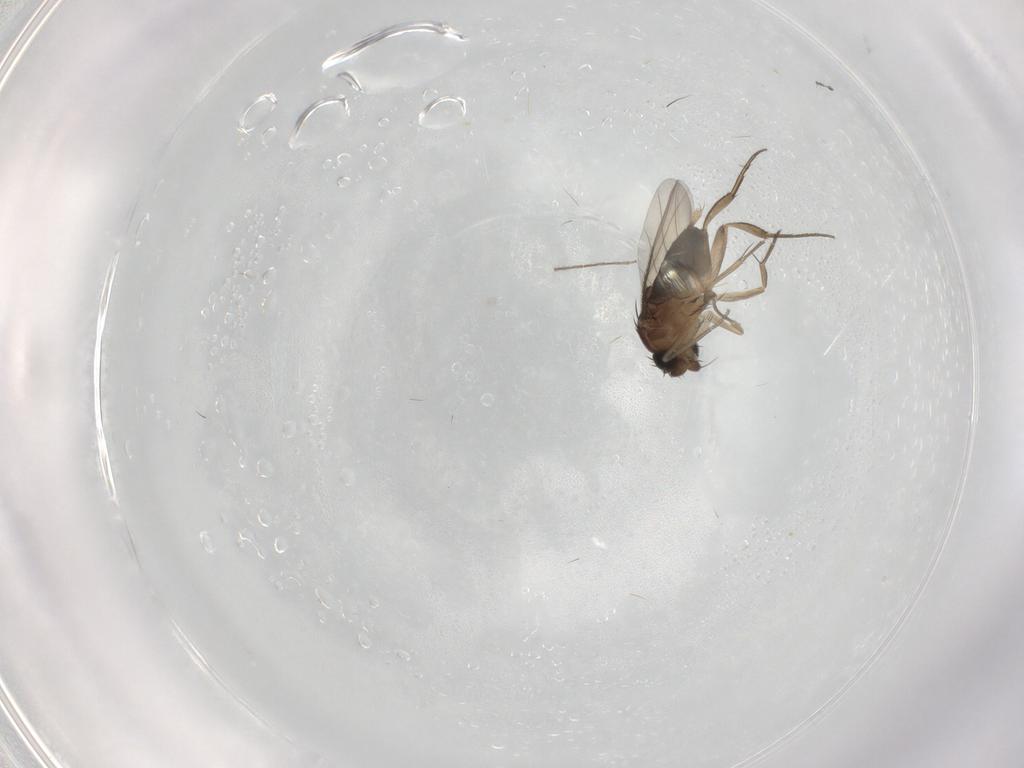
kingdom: Animalia
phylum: Arthropoda
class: Insecta
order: Diptera
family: Phoridae
